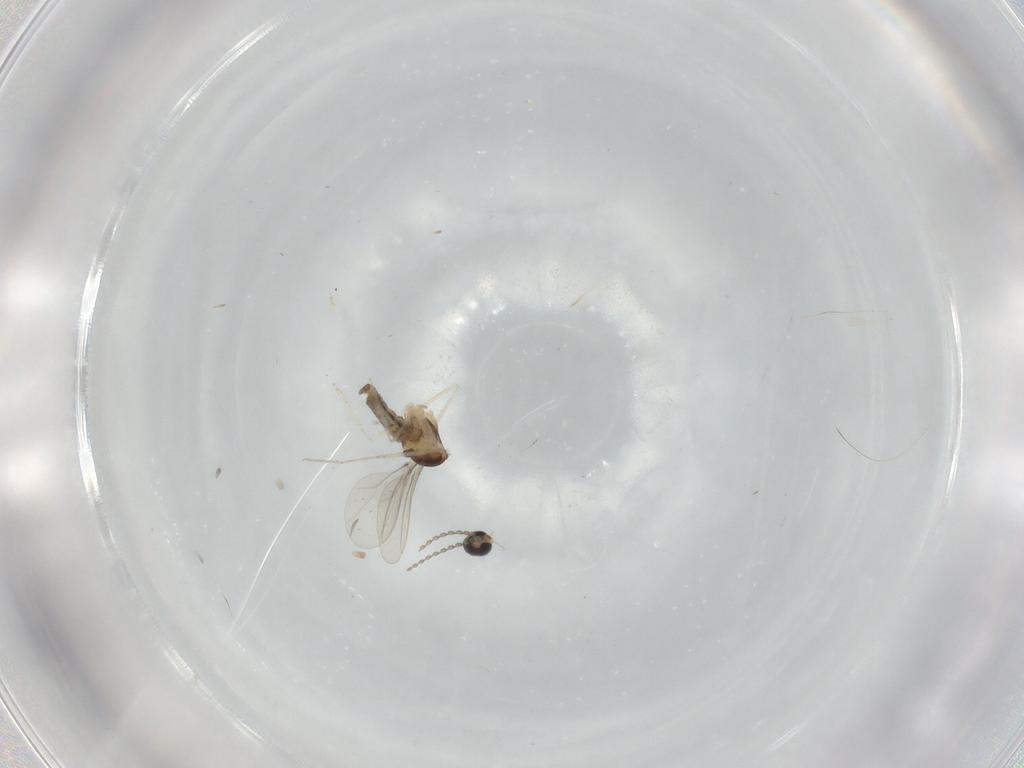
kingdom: Animalia
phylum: Arthropoda
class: Insecta
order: Diptera
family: Cecidomyiidae
